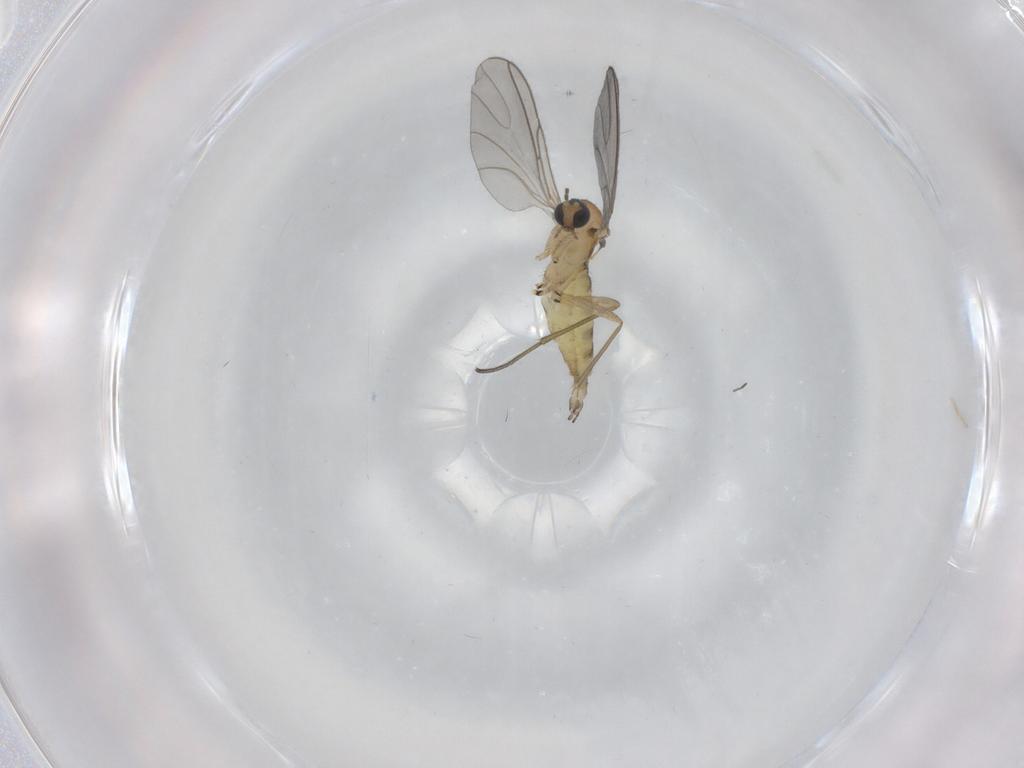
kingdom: Animalia
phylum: Arthropoda
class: Insecta
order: Diptera
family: Sciaridae
